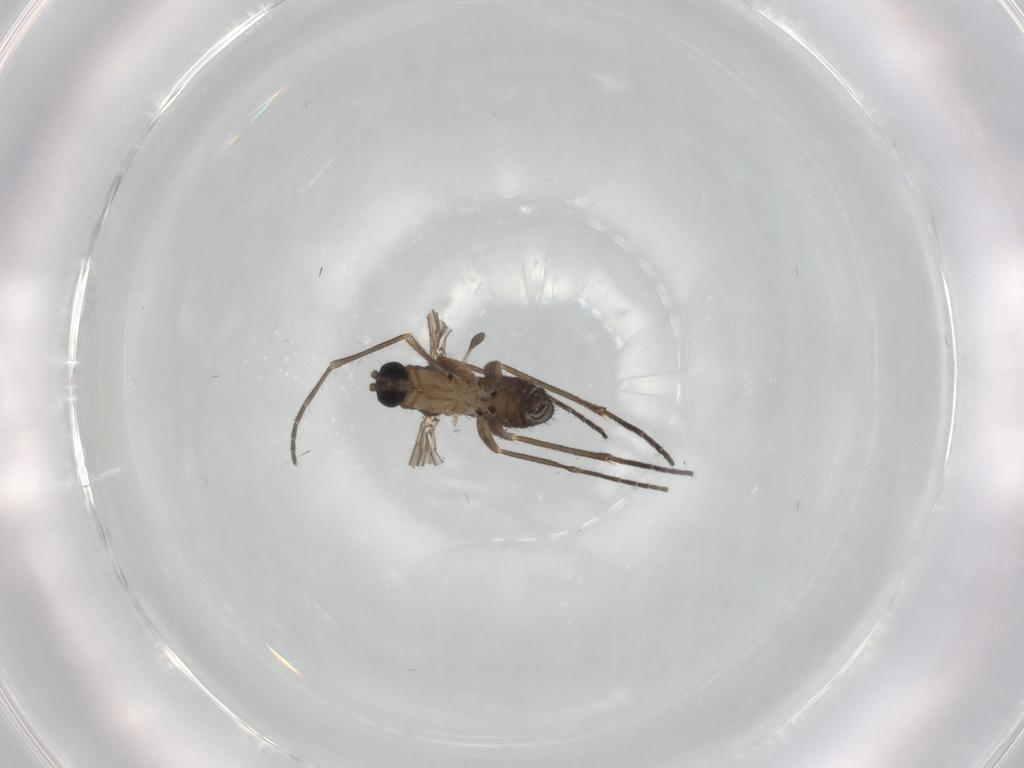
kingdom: Animalia
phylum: Arthropoda
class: Insecta
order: Diptera
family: Sciaridae
